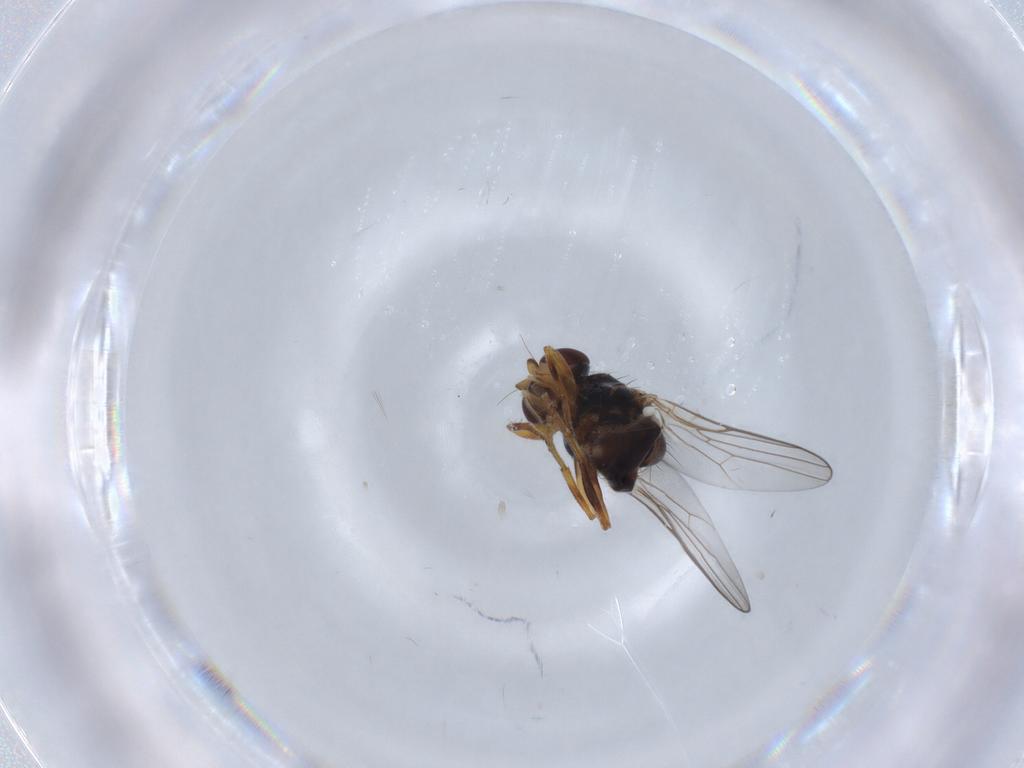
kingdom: Animalia
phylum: Arthropoda
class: Insecta
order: Diptera
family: Chloropidae
